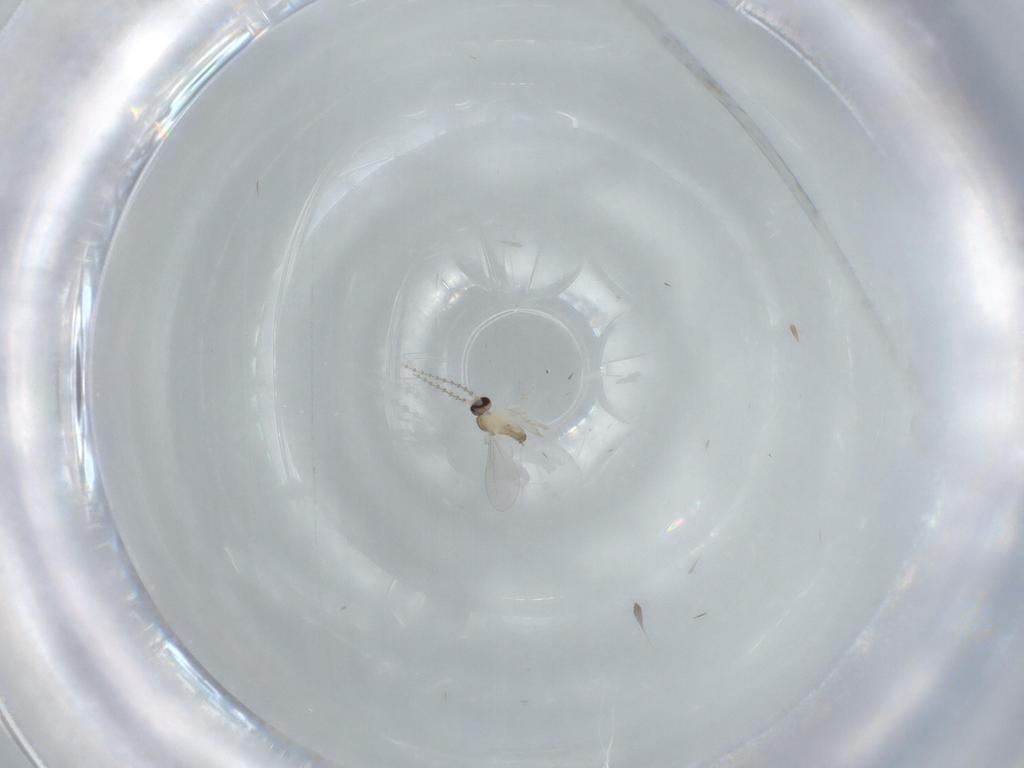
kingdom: Animalia
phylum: Arthropoda
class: Insecta
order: Diptera
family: Cecidomyiidae
